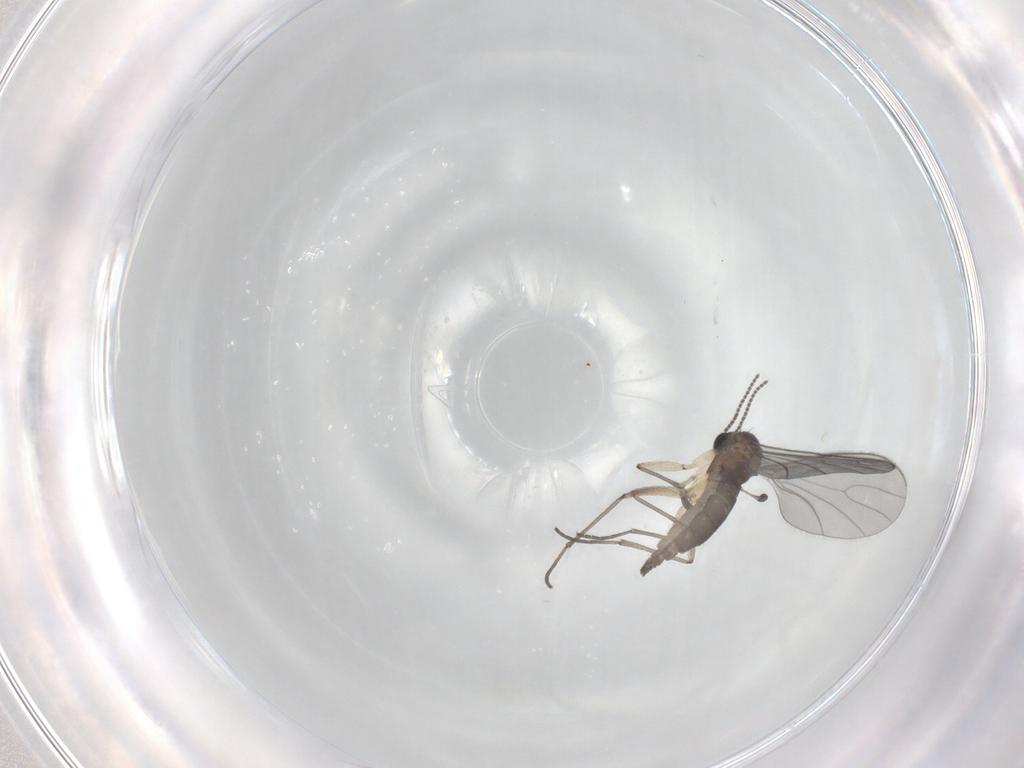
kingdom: Animalia
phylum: Arthropoda
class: Insecta
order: Diptera
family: Sciaridae
